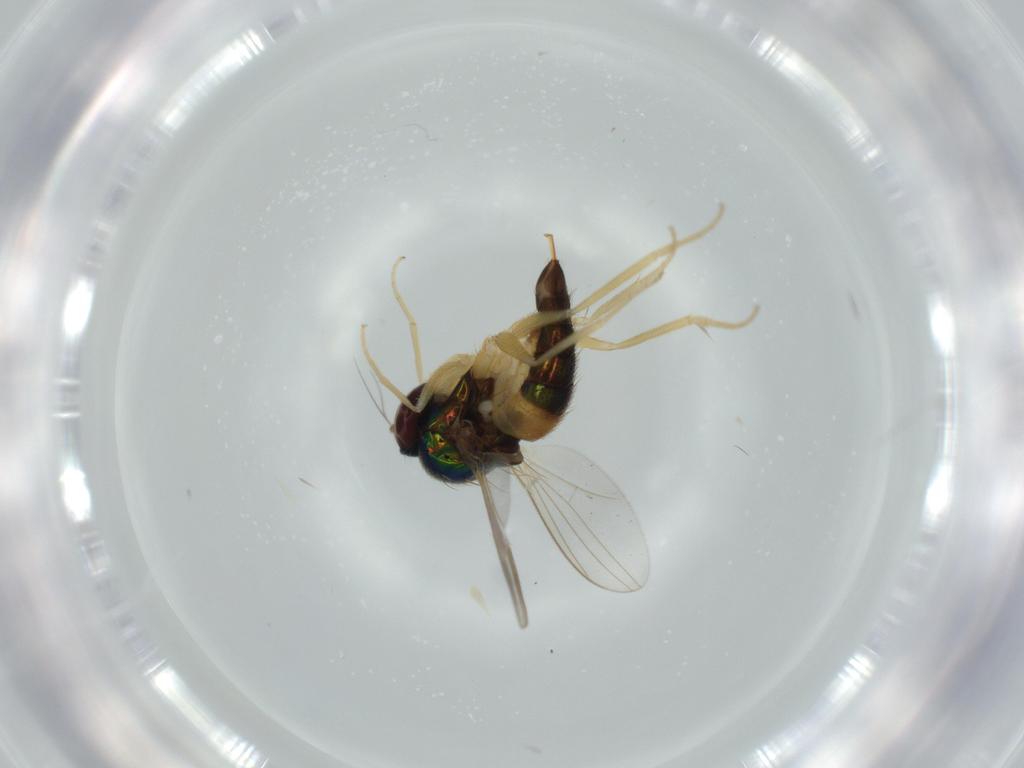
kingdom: Animalia
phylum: Arthropoda
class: Insecta
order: Diptera
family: Dolichopodidae
